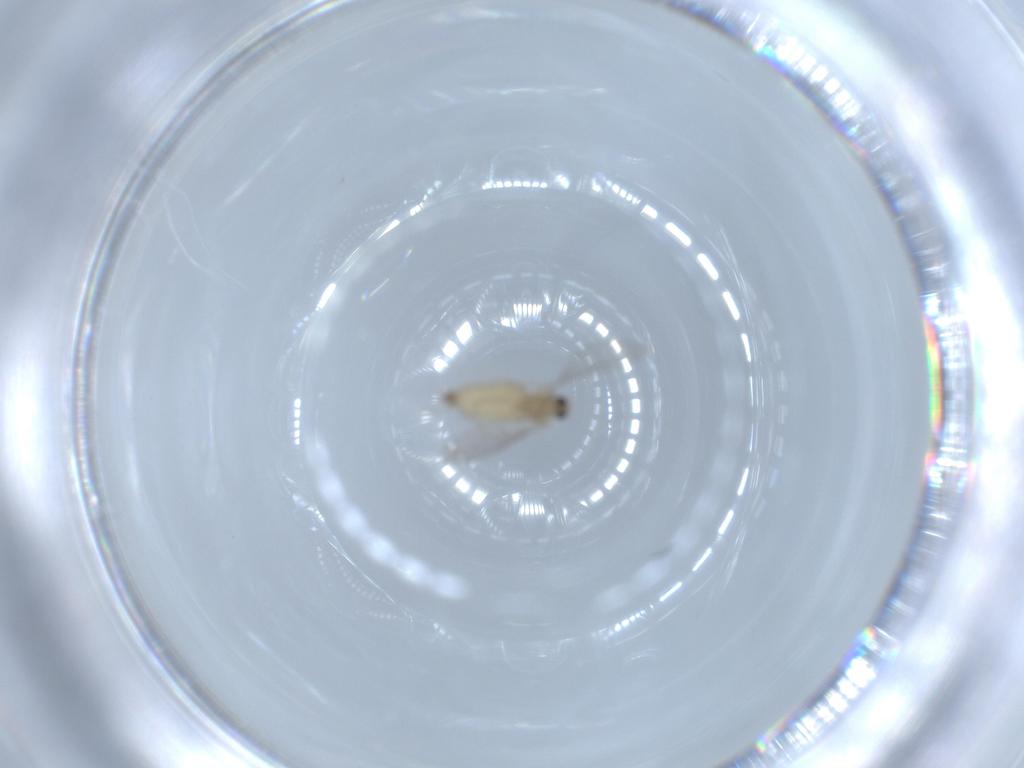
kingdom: Animalia
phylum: Arthropoda
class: Insecta
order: Diptera
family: Cecidomyiidae
